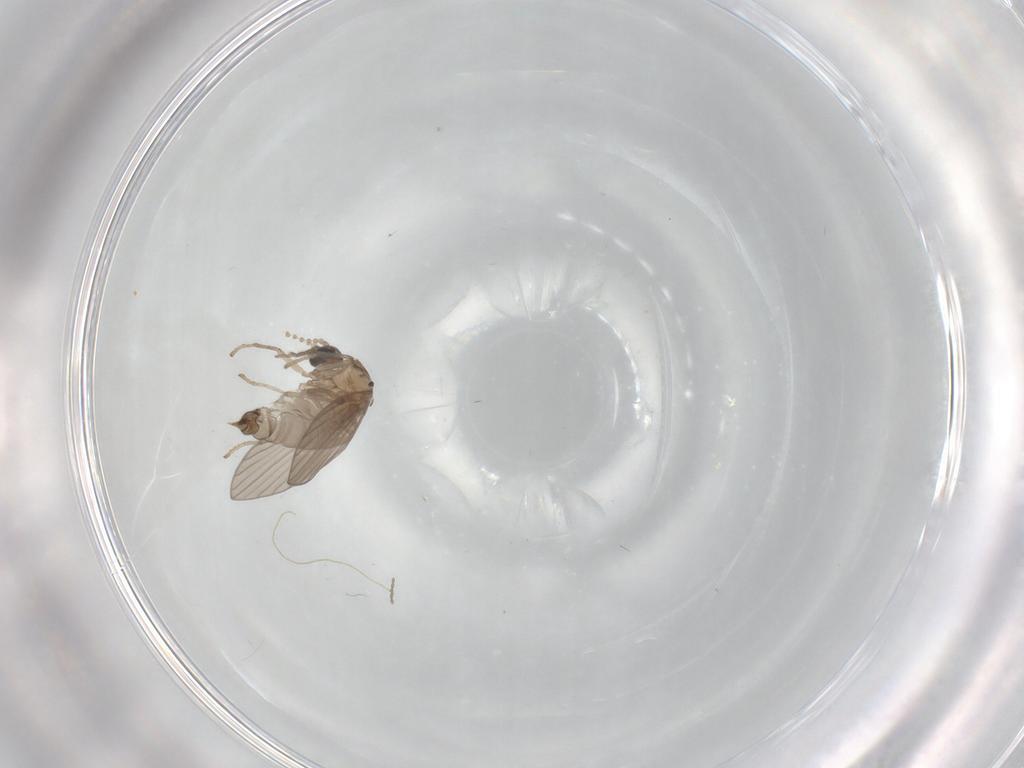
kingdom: Animalia
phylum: Arthropoda
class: Insecta
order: Diptera
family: Psychodidae
